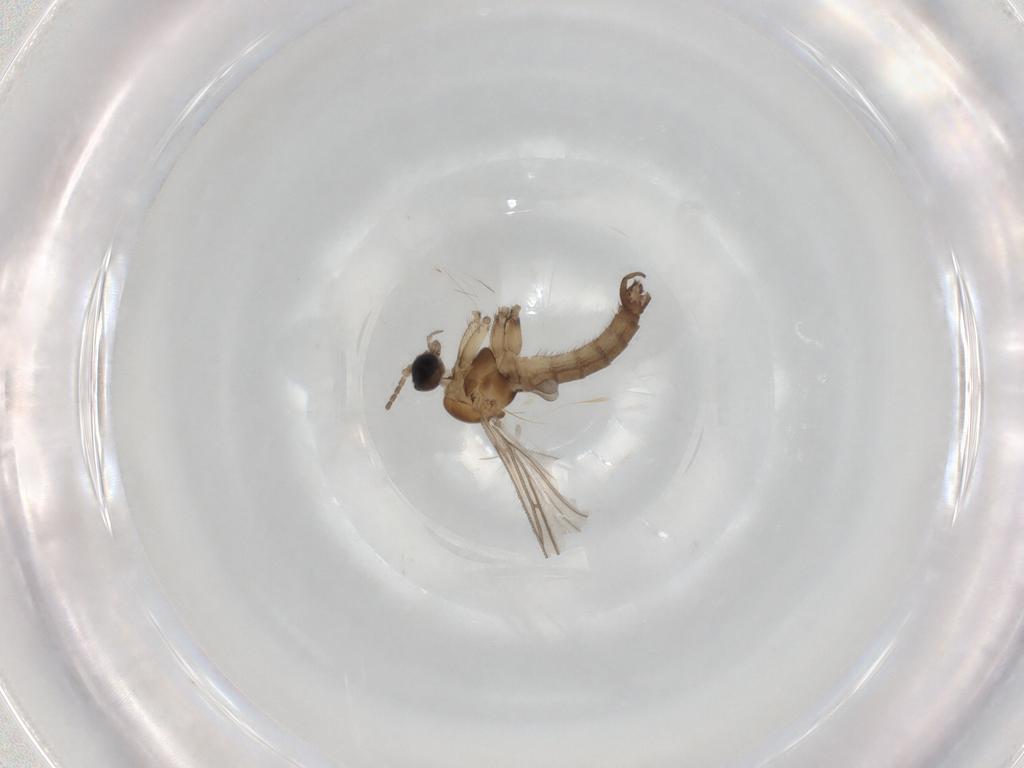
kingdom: Animalia
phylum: Arthropoda
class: Insecta
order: Diptera
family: Sciaridae
